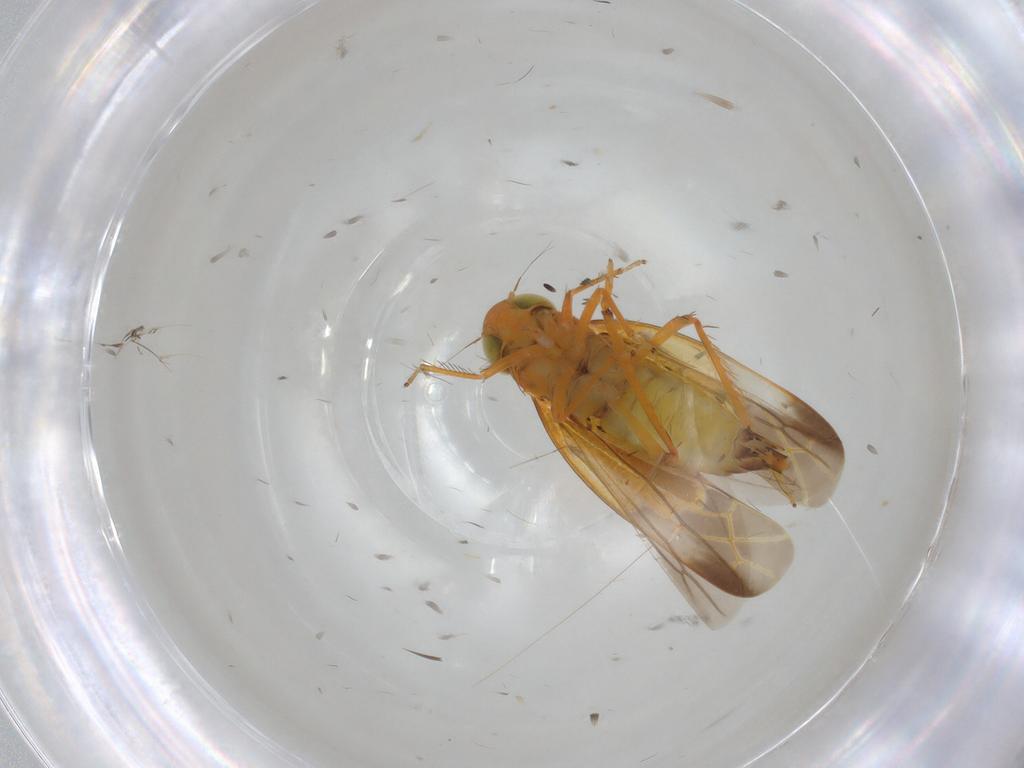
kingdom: Animalia
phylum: Arthropoda
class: Insecta
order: Hemiptera
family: Cicadellidae
